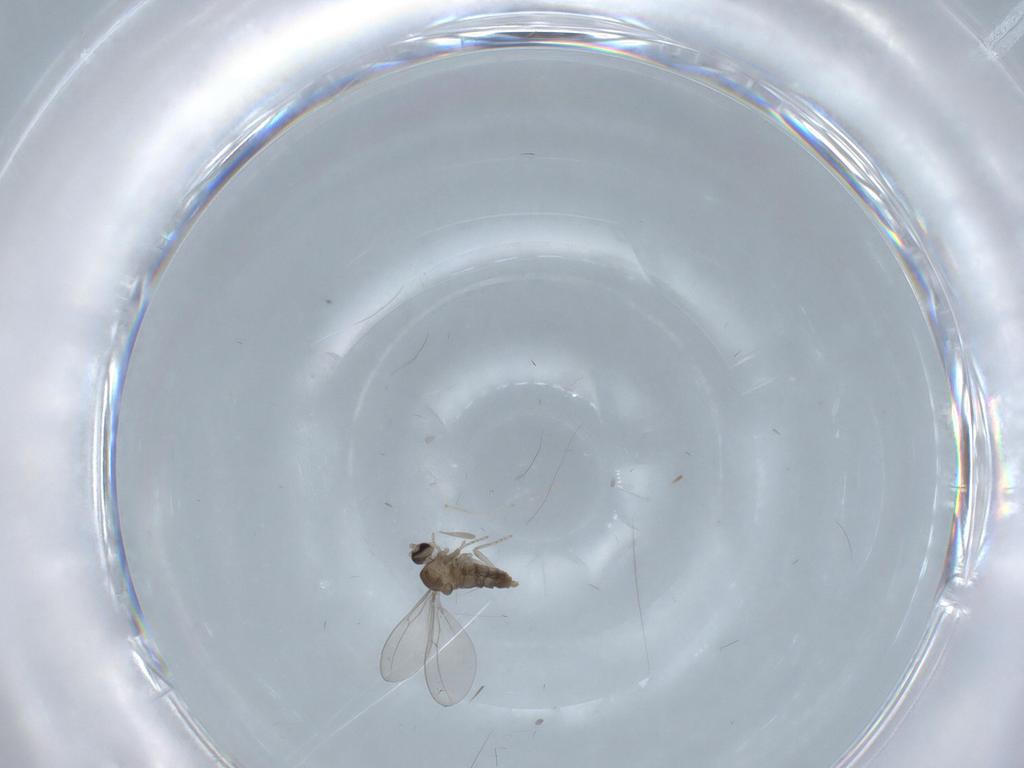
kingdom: Animalia
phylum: Arthropoda
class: Insecta
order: Diptera
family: Cecidomyiidae
